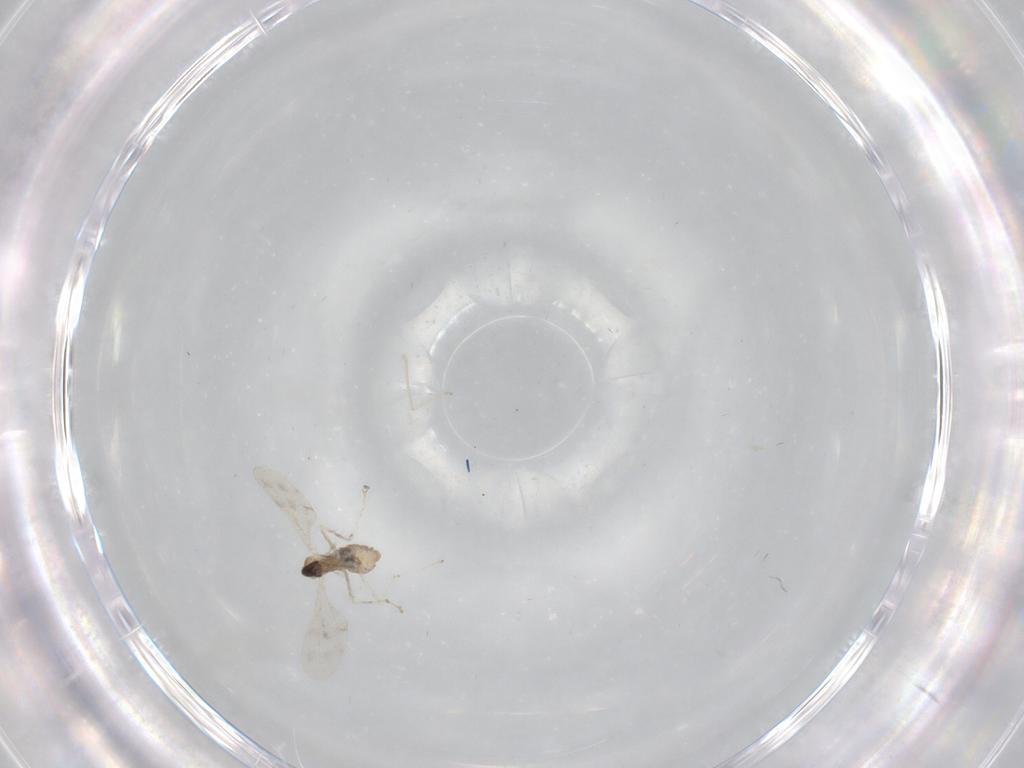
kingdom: Animalia
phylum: Arthropoda
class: Insecta
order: Diptera
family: Cecidomyiidae
